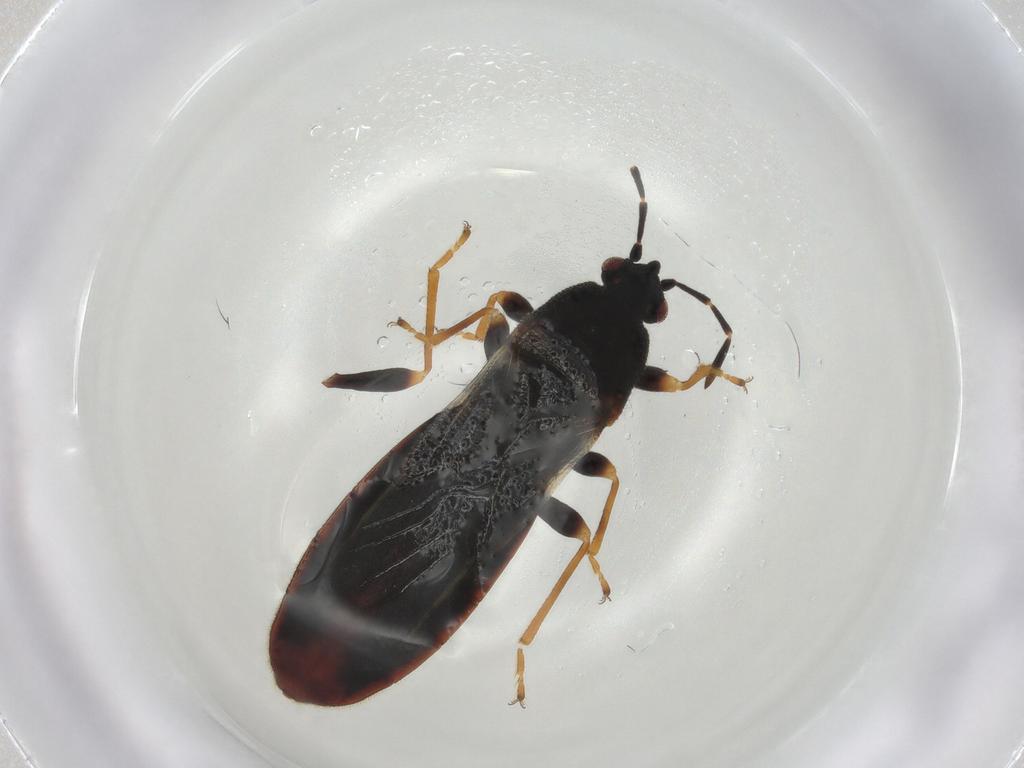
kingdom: Animalia
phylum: Arthropoda
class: Insecta
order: Hemiptera
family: Blissidae
